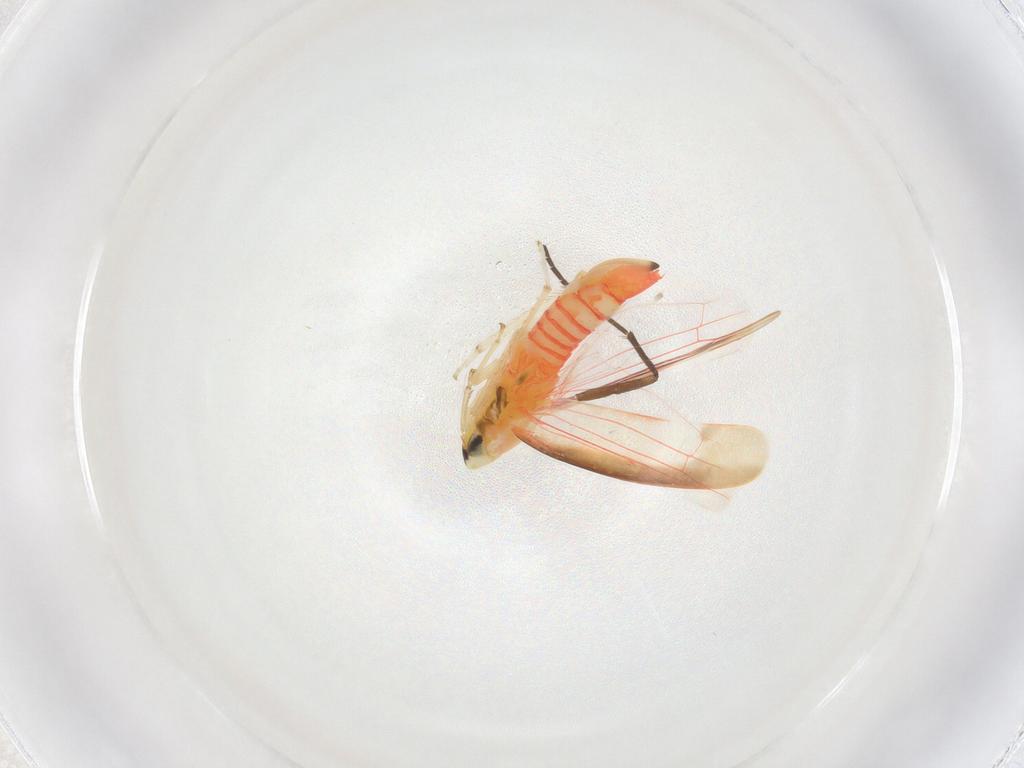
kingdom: Animalia
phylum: Arthropoda
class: Insecta
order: Hemiptera
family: Cicadellidae
